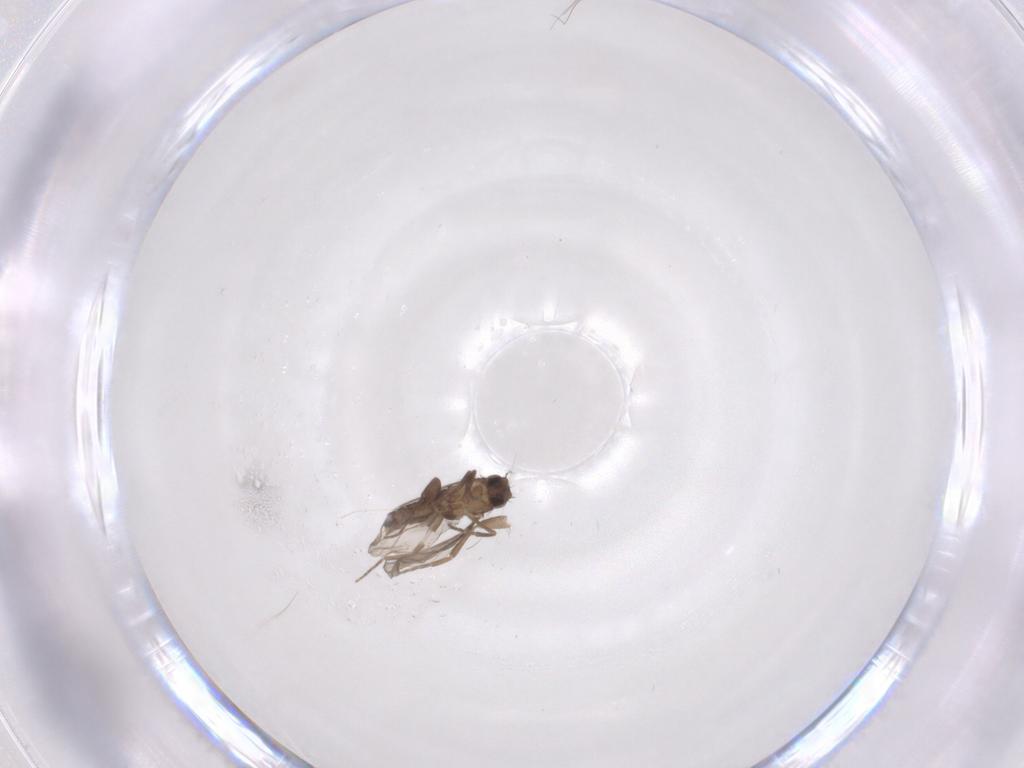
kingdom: Animalia
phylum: Arthropoda
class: Insecta
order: Diptera
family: Phoridae
